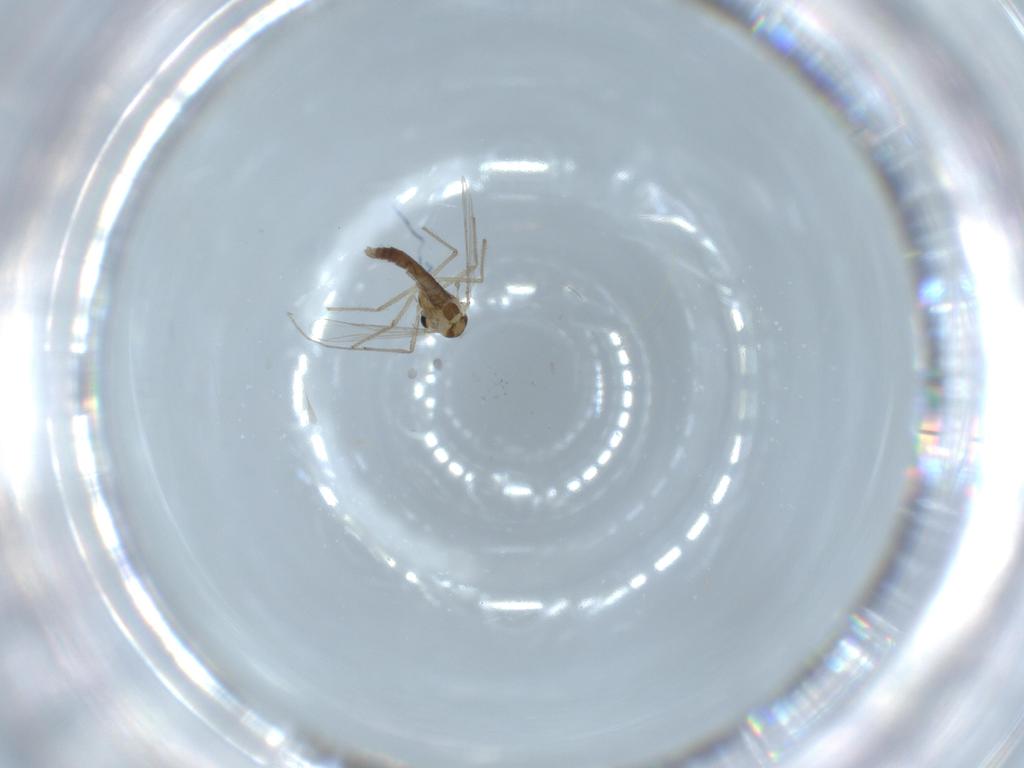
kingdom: Animalia
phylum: Arthropoda
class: Insecta
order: Diptera
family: Chironomidae
